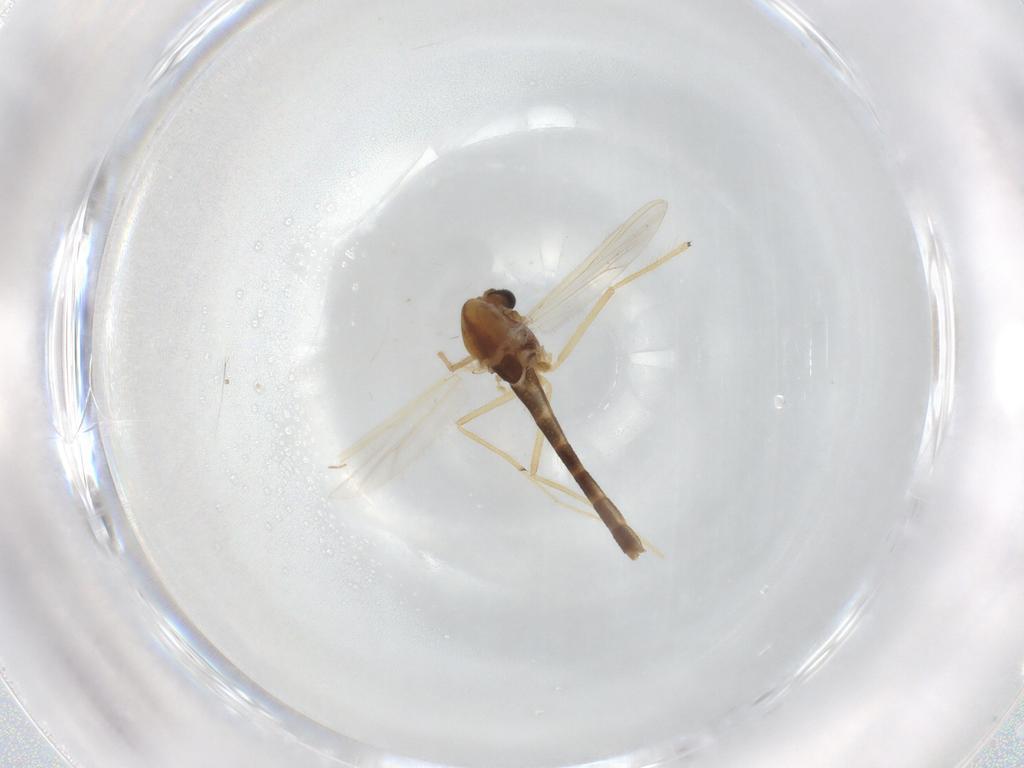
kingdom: Animalia
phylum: Arthropoda
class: Insecta
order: Diptera
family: Chironomidae
